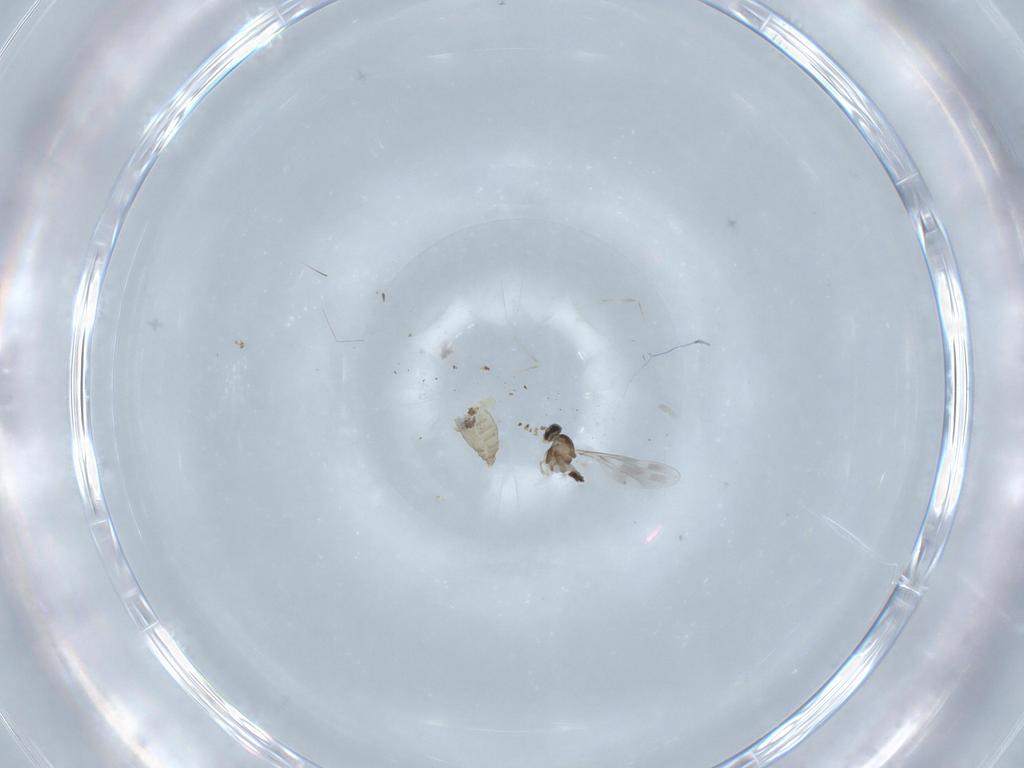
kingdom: Animalia
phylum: Arthropoda
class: Insecta
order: Diptera
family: Cecidomyiidae
